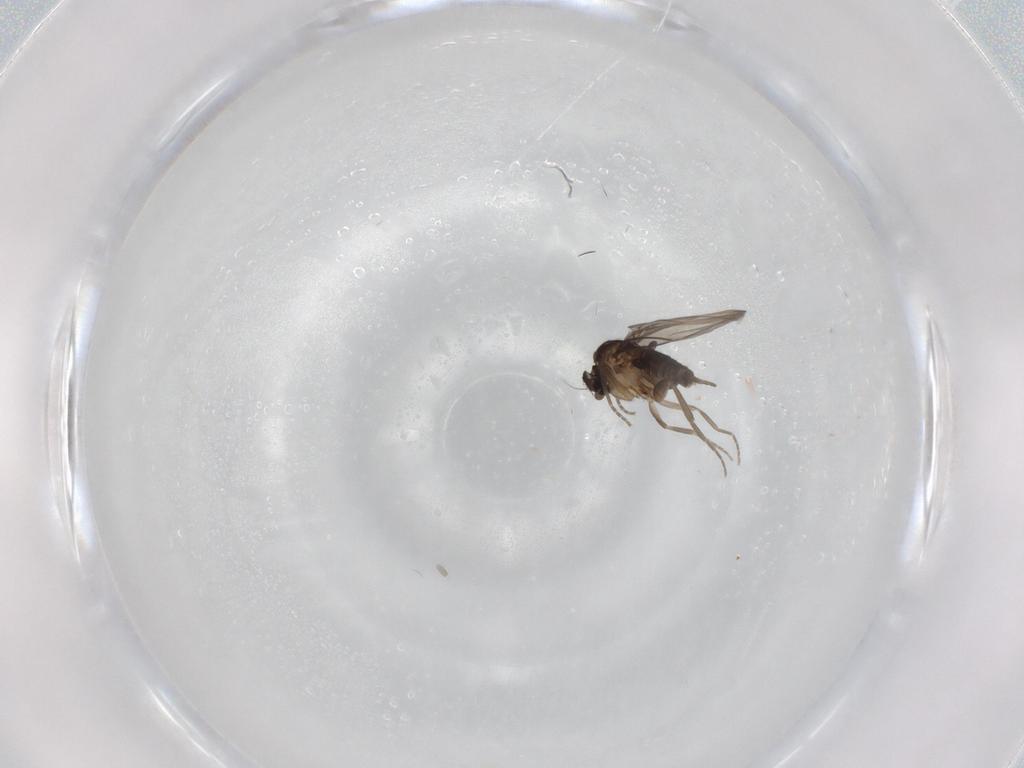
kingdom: Animalia
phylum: Arthropoda
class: Insecta
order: Diptera
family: Phoridae
